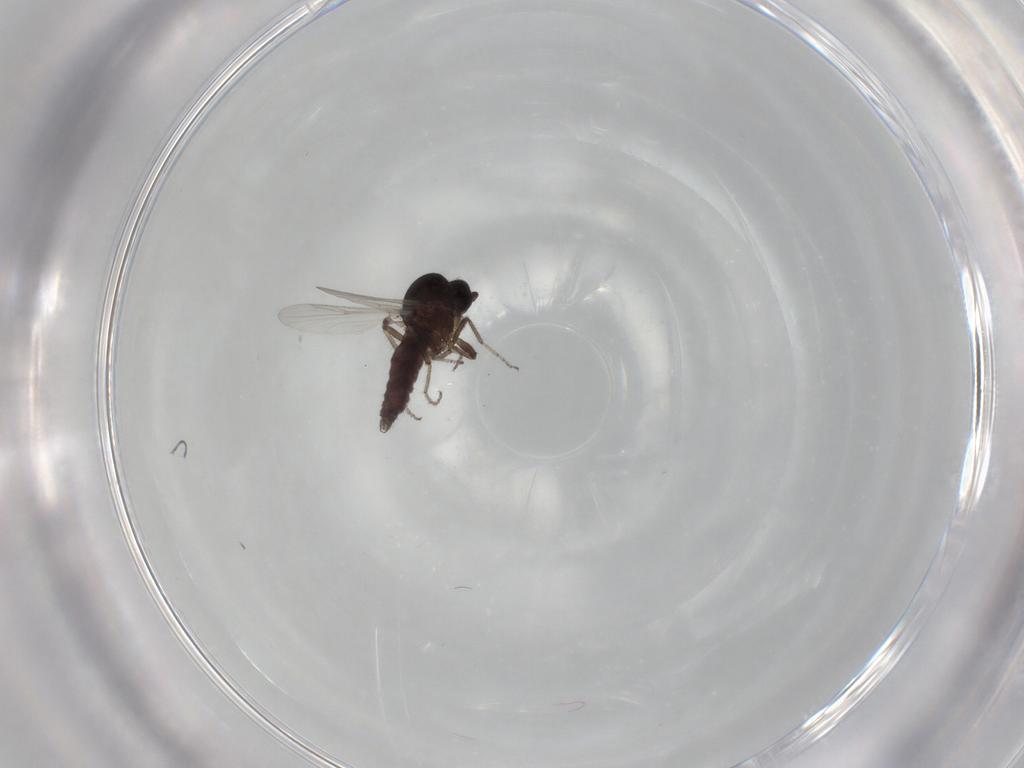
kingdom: Animalia
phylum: Arthropoda
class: Insecta
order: Diptera
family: Ceratopogonidae
